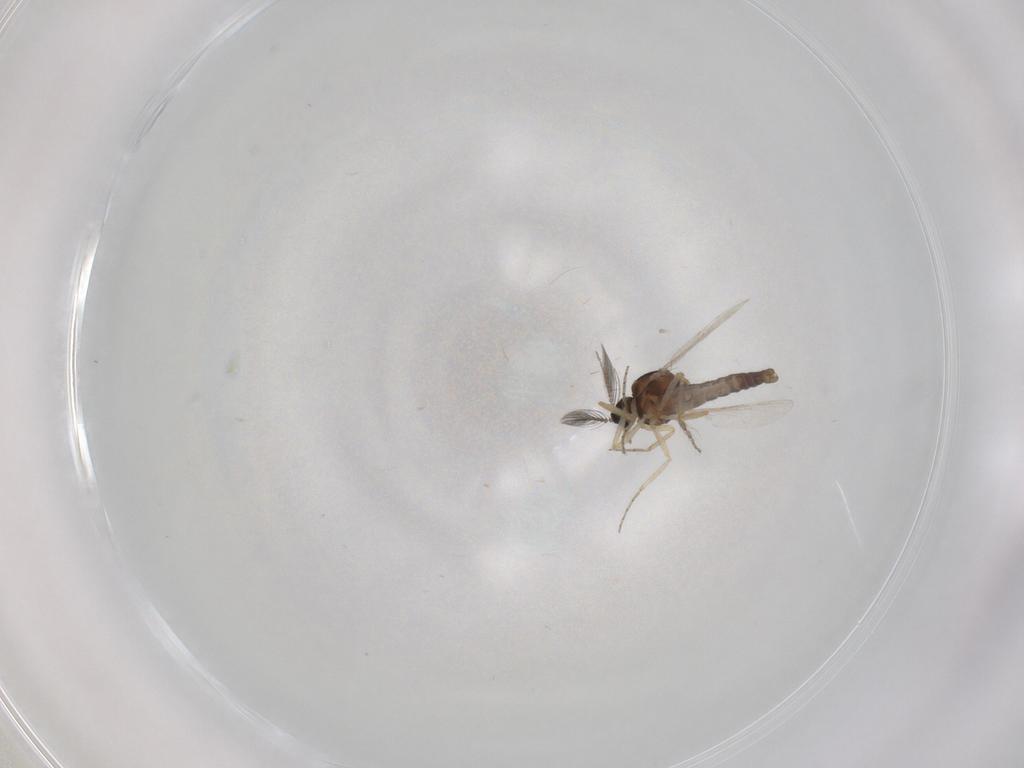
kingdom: Animalia
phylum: Arthropoda
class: Insecta
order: Diptera
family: Ceratopogonidae
